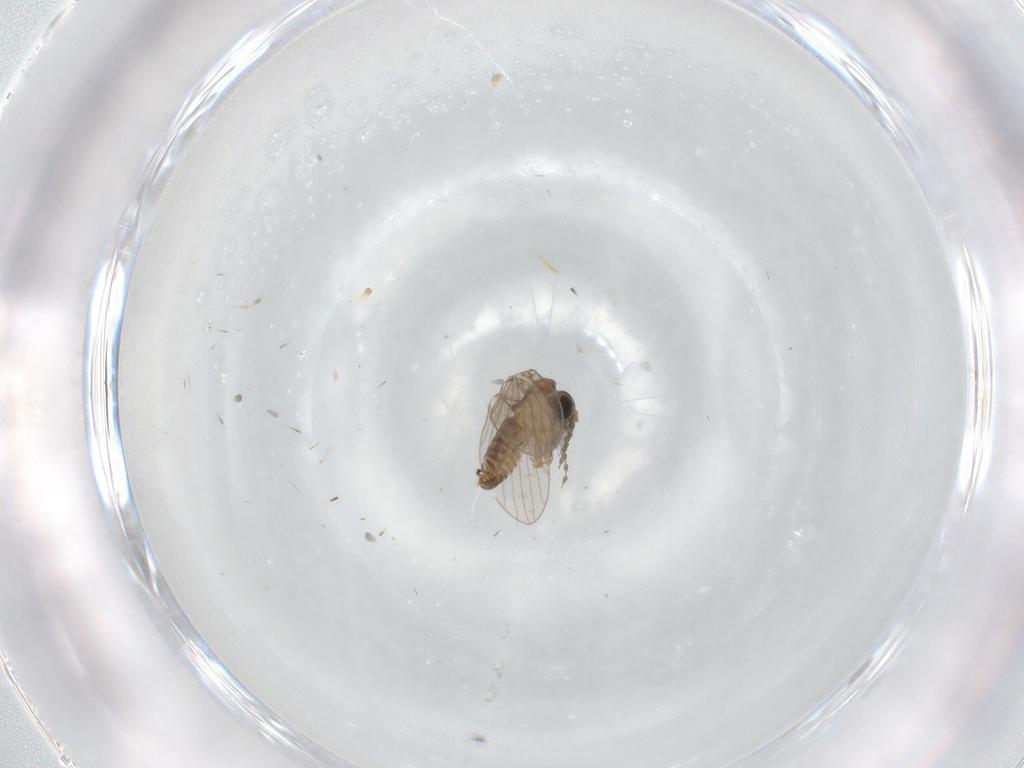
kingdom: Animalia
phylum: Arthropoda
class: Insecta
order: Diptera
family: Psychodidae
